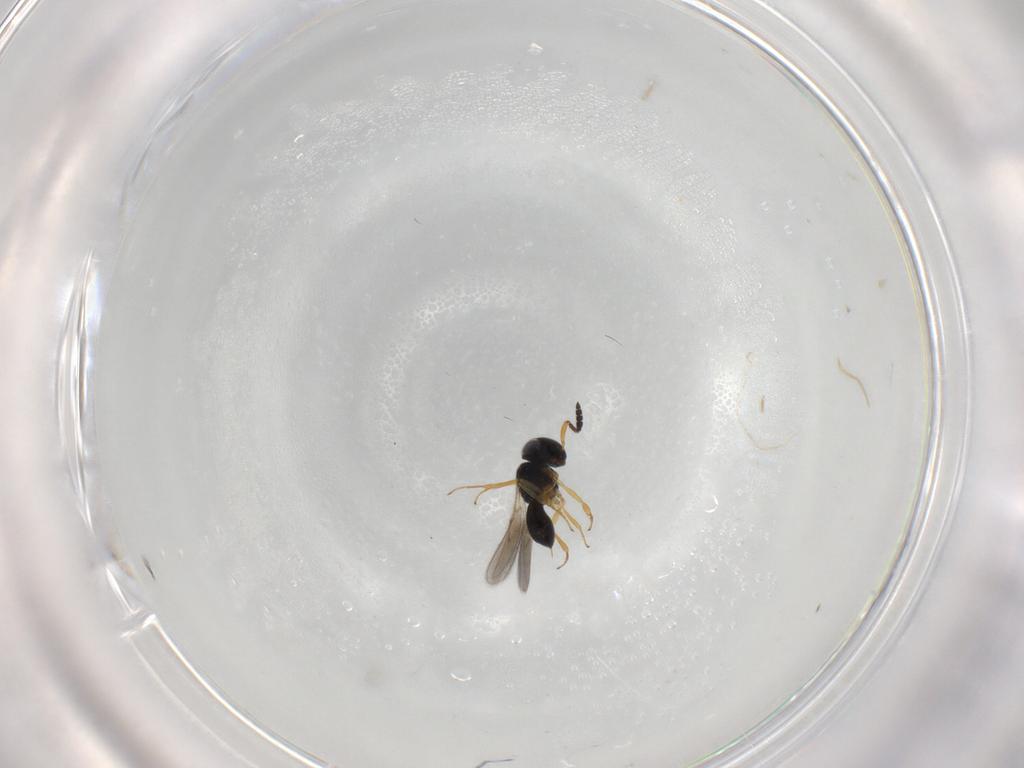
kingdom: Animalia
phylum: Arthropoda
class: Insecta
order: Hymenoptera
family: Scelionidae
